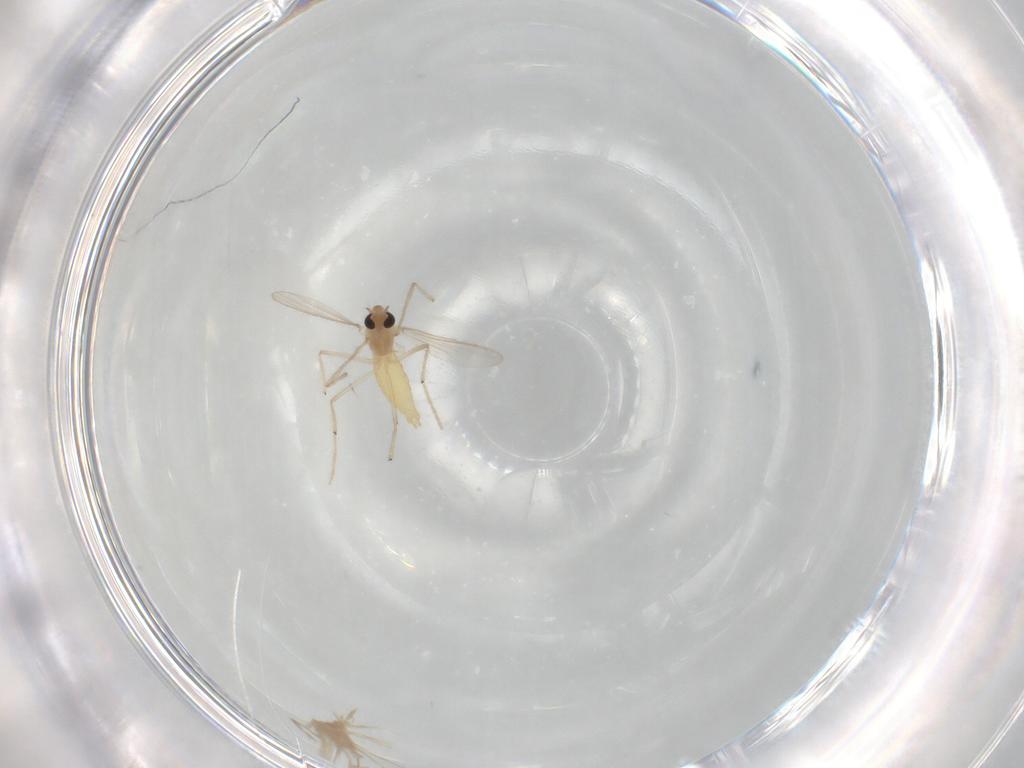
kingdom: Animalia
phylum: Arthropoda
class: Insecta
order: Diptera
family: Chironomidae
